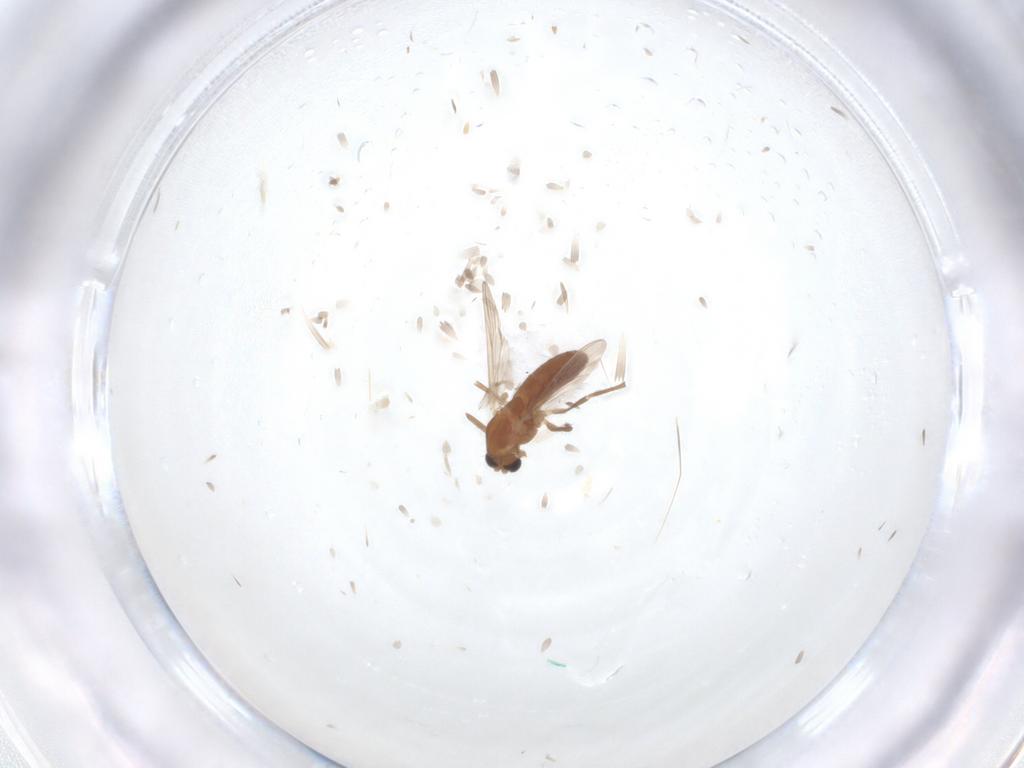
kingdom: Animalia
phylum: Arthropoda
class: Insecta
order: Diptera
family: Chironomidae
